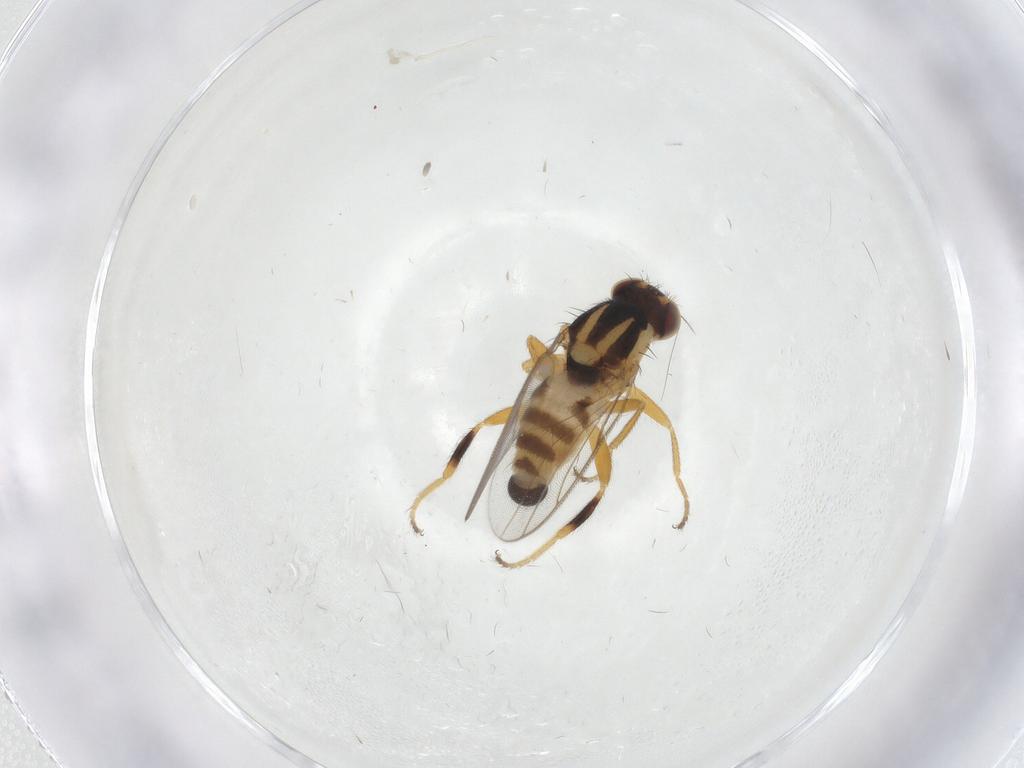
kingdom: Animalia
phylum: Arthropoda
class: Insecta
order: Diptera
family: Chloropidae
